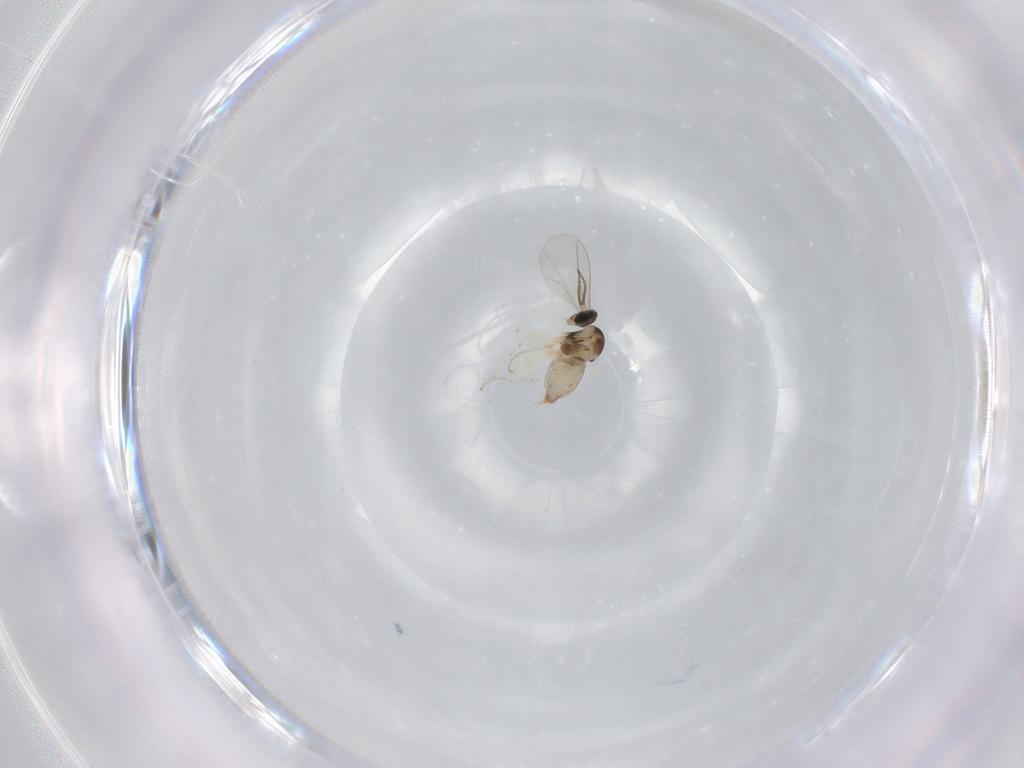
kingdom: Animalia
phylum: Arthropoda
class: Insecta
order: Diptera
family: Cecidomyiidae
